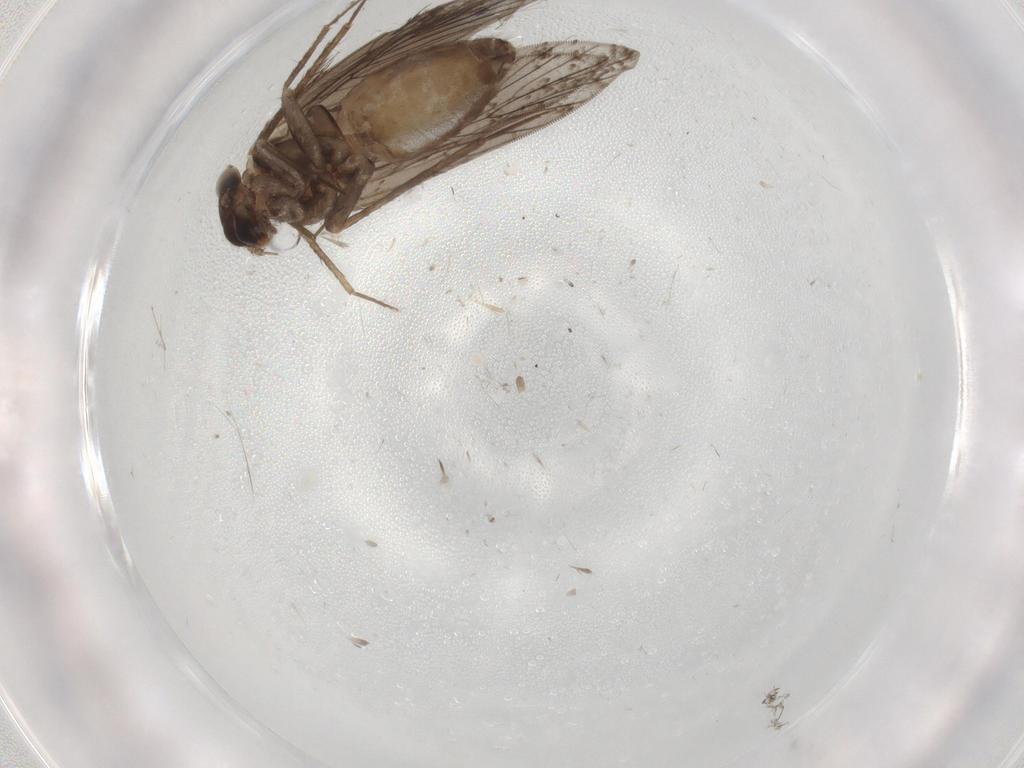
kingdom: Animalia
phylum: Arthropoda
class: Insecta
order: Psocodea
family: Lepidopsocidae
